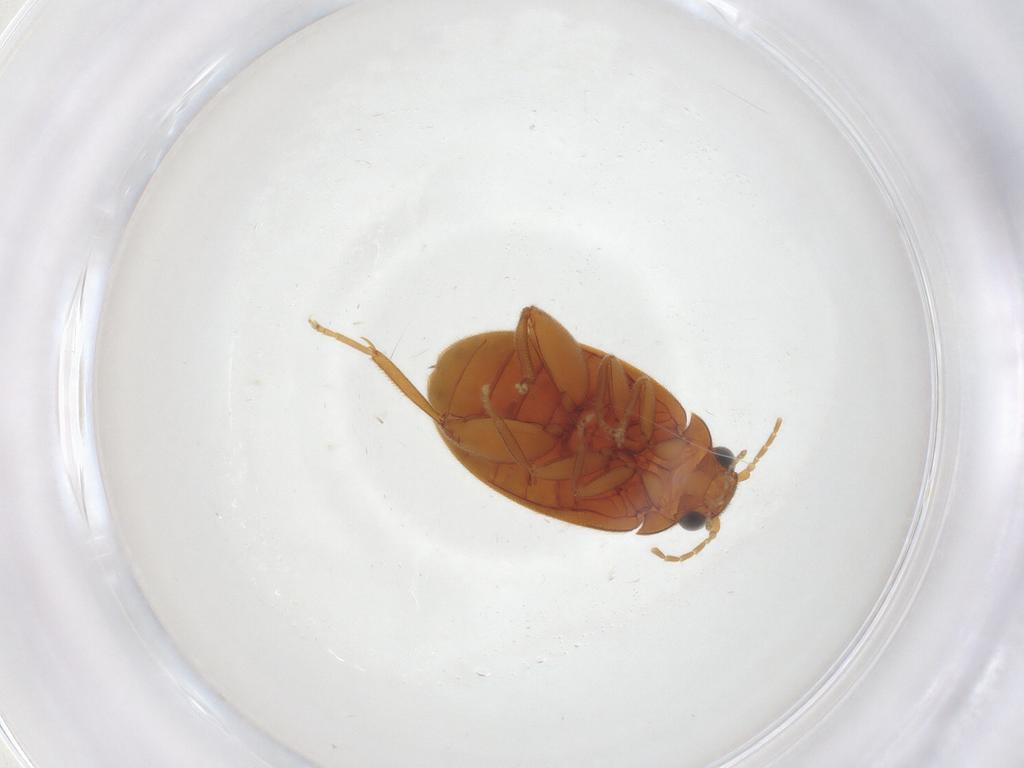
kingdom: Animalia
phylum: Arthropoda
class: Insecta
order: Coleoptera
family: Scirtidae
